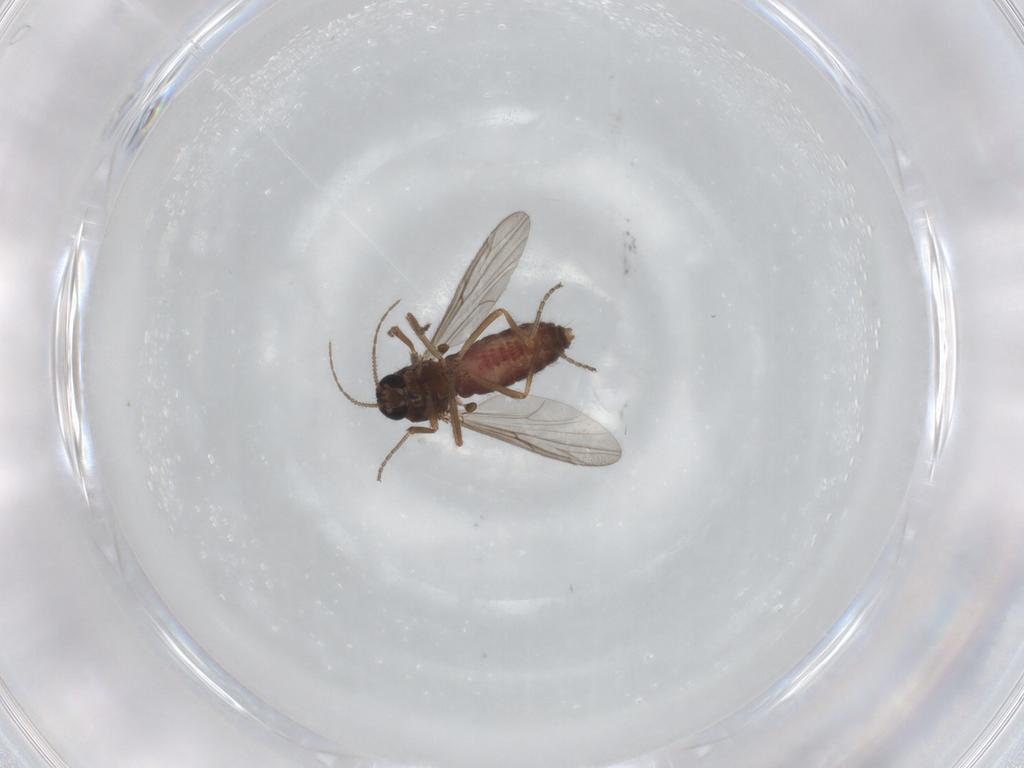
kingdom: Animalia
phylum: Arthropoda
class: Insecta
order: Diptera
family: Ceratopogonidae
